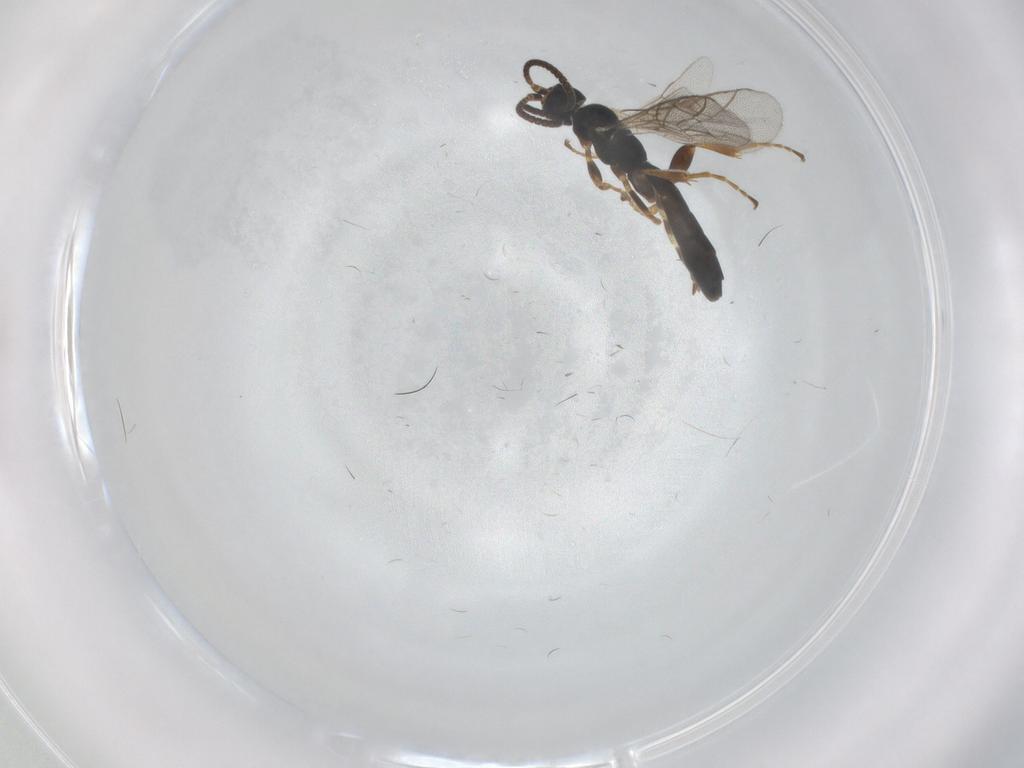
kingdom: Animalia
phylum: Arthropoda
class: Insecta
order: Hymenoptera
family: Ichneumonidae
